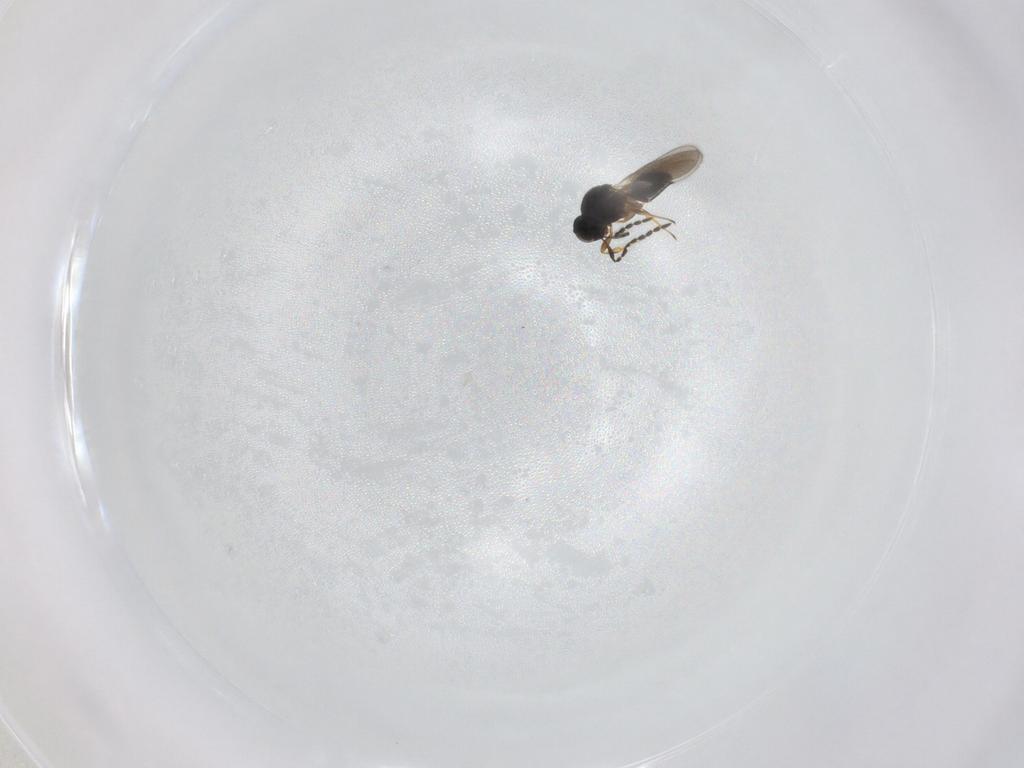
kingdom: Animalia
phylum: Arthropoda
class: Insecta
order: Hymenoptera
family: Platygastridae
